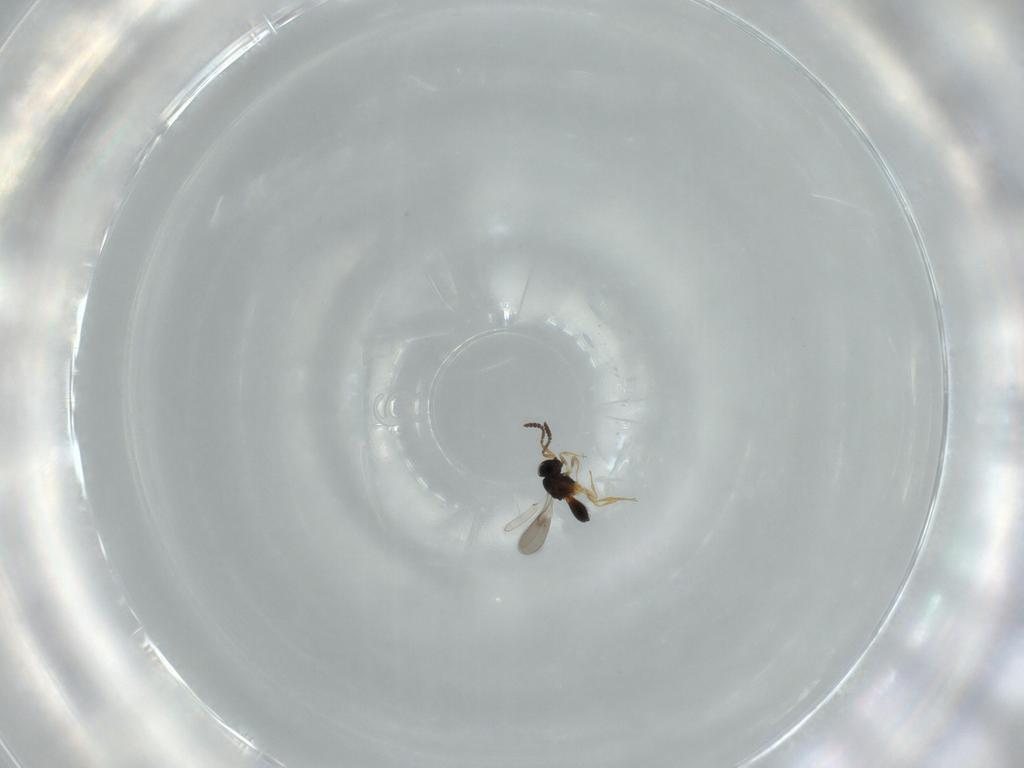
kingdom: Animalia
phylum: Arthropoda
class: Insecta
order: Hymenoptera
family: Scelionidae
